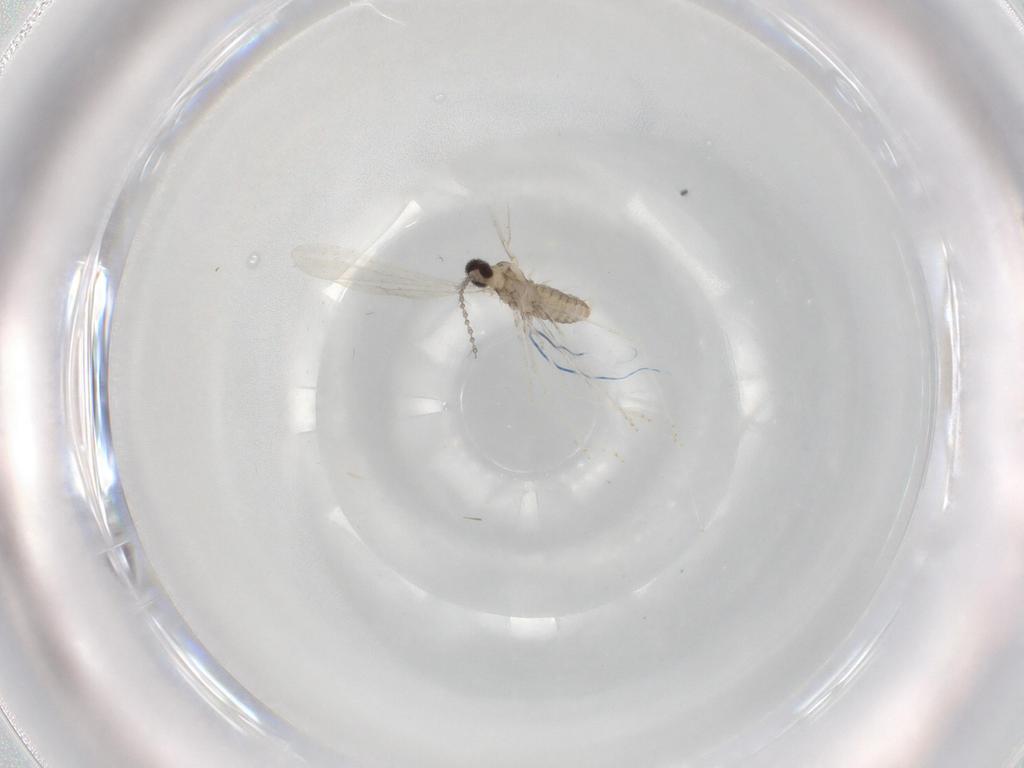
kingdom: Animalia
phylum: Arthropoda
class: Insecta
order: Diptera
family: Cecidomyiidae
